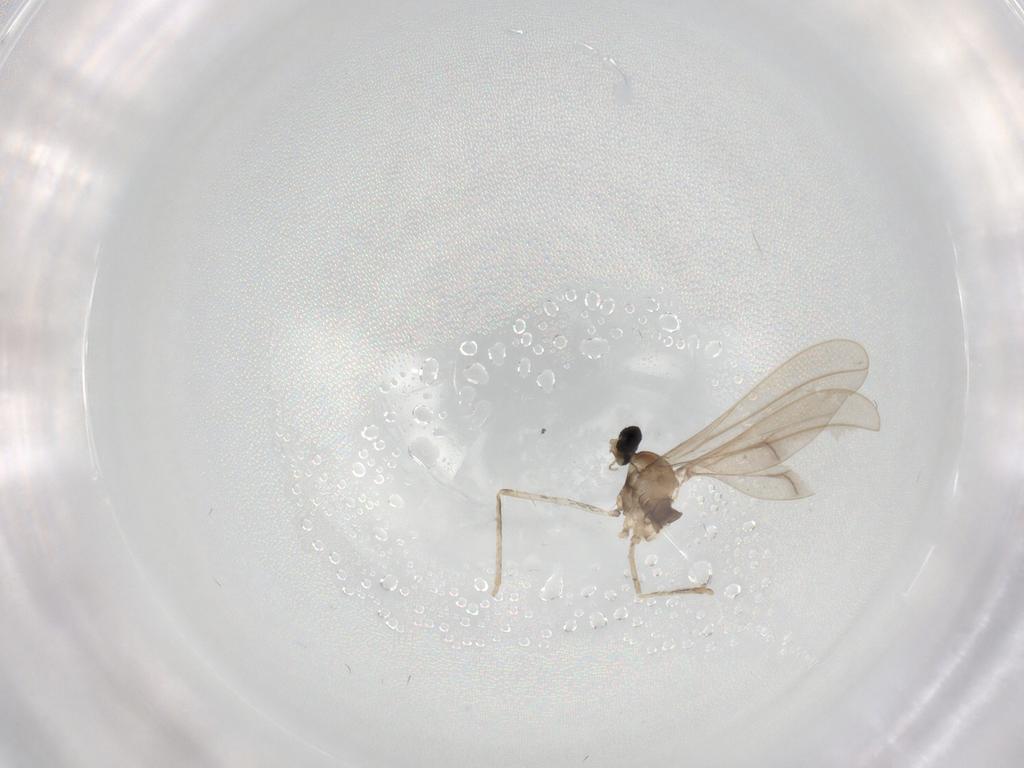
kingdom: Animalia
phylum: Arthropoda
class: Insecta
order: Diptera
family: Cecidomyiidae
